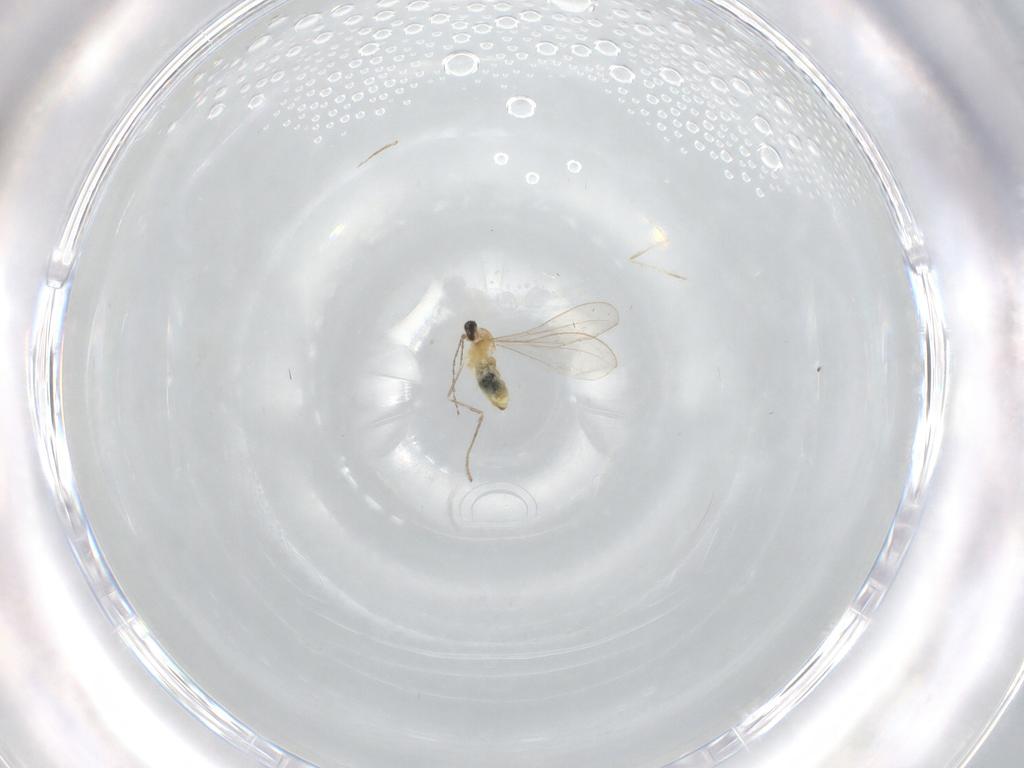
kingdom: Animalia
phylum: Arthropoda
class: Insecta
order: Diptera
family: Cecidomyiidae
